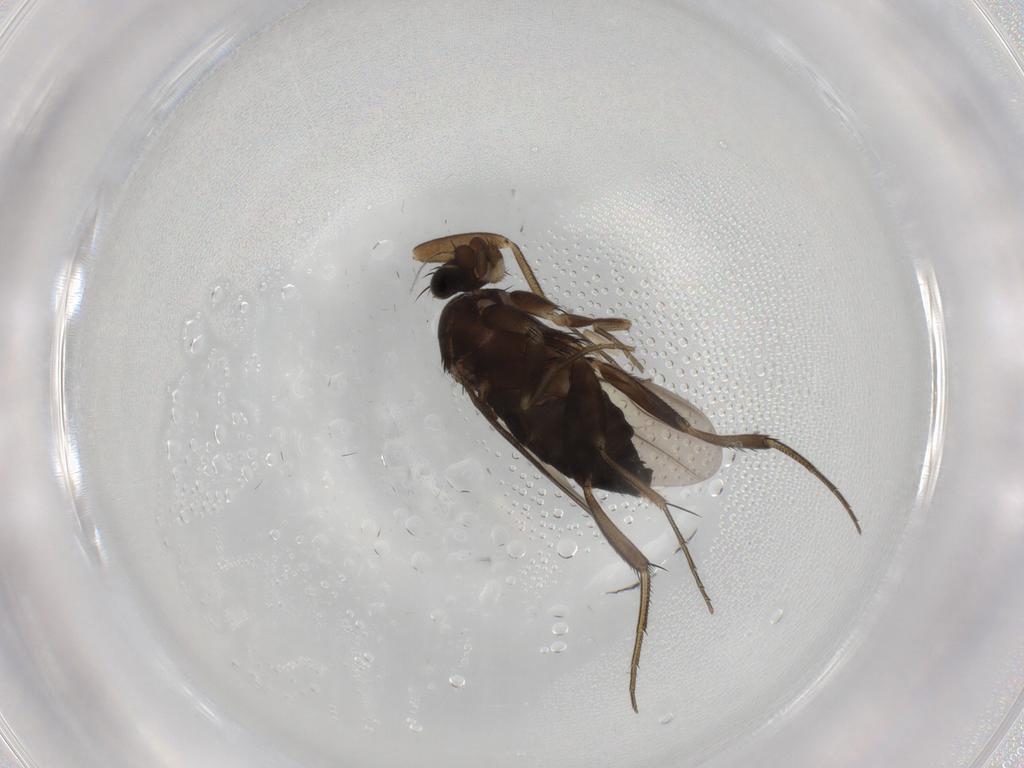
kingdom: Animalia
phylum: Arthropoda
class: Insecta
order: Diptera
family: Phoridae
